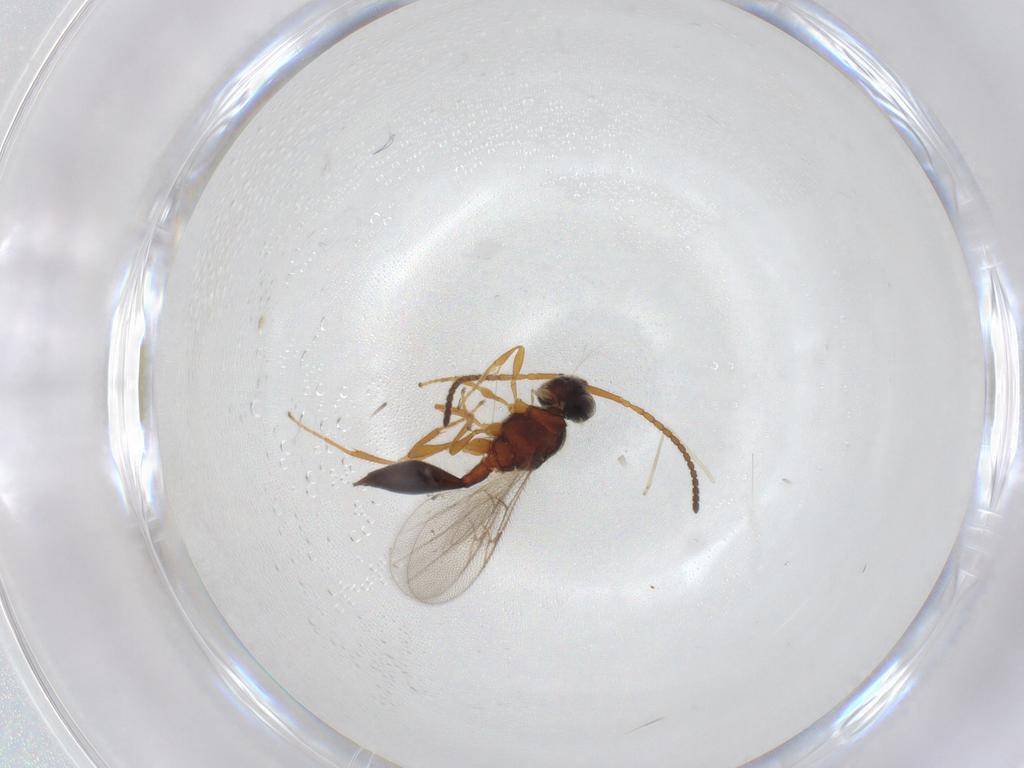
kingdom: Animalia
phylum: Arthropoda
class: Insecta
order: Hymenoptera
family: Diapriidae
